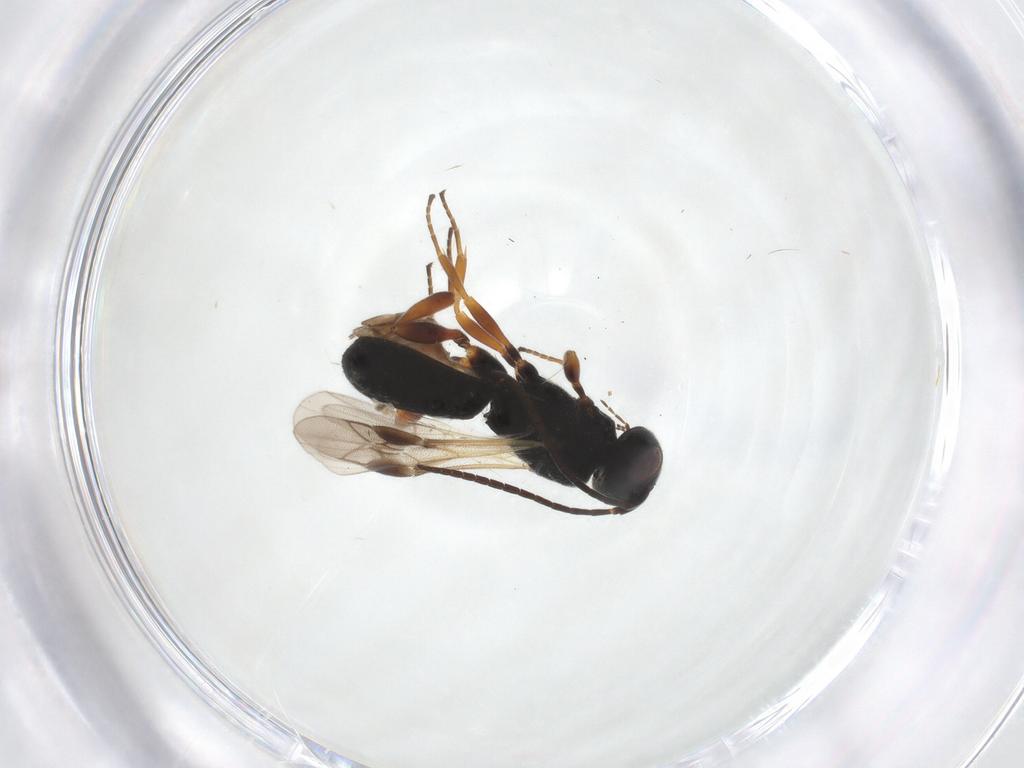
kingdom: Animalia
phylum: Arthropoda
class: Insecta
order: Hymenoptera
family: Braconidae
